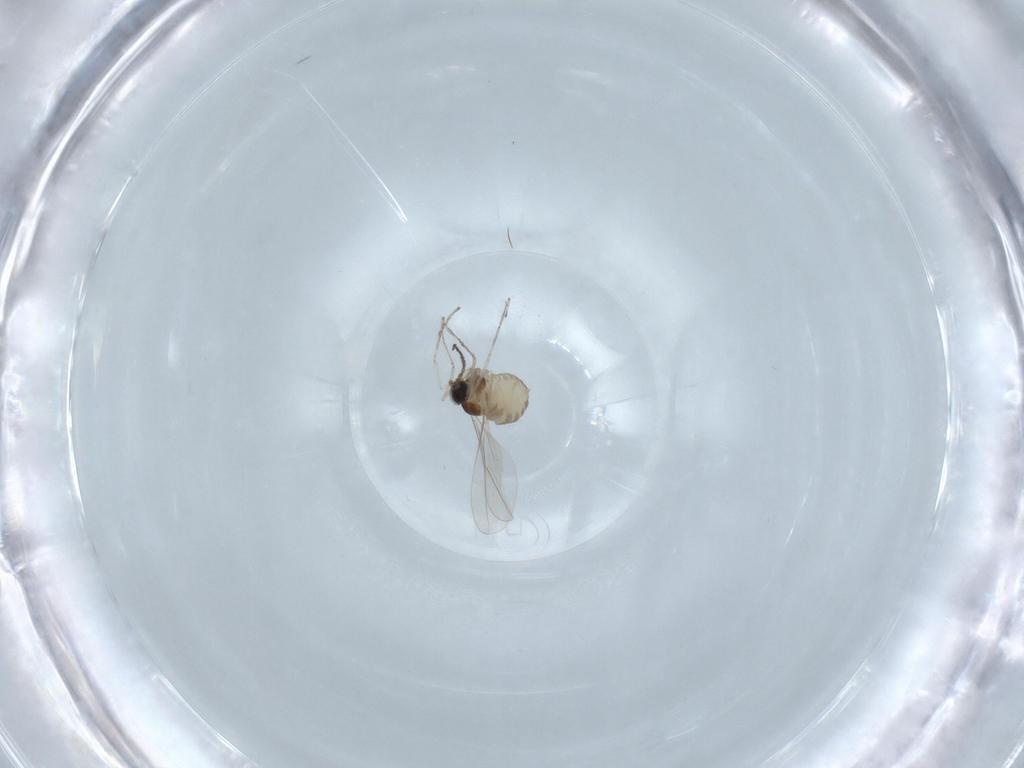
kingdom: Animalia
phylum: Arthropoda
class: Insecta
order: Diptera
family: Cecidomyiidae
